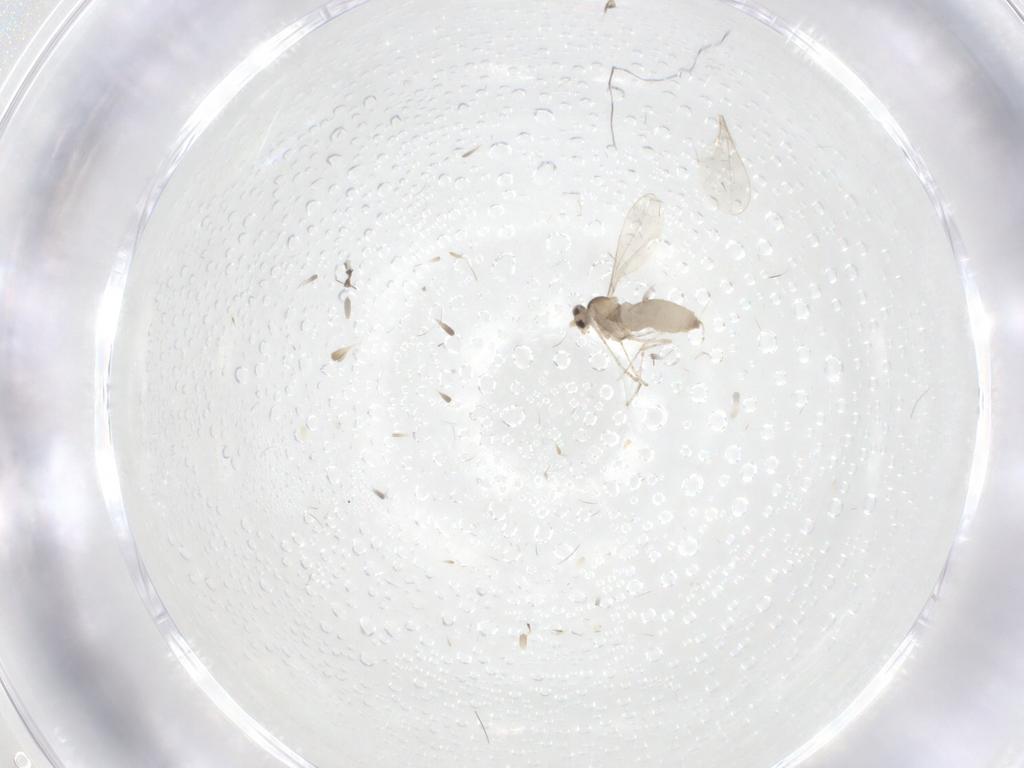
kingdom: Animalia
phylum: Arthropoda
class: Insecta
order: Diptera
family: Cecidomyiidae
